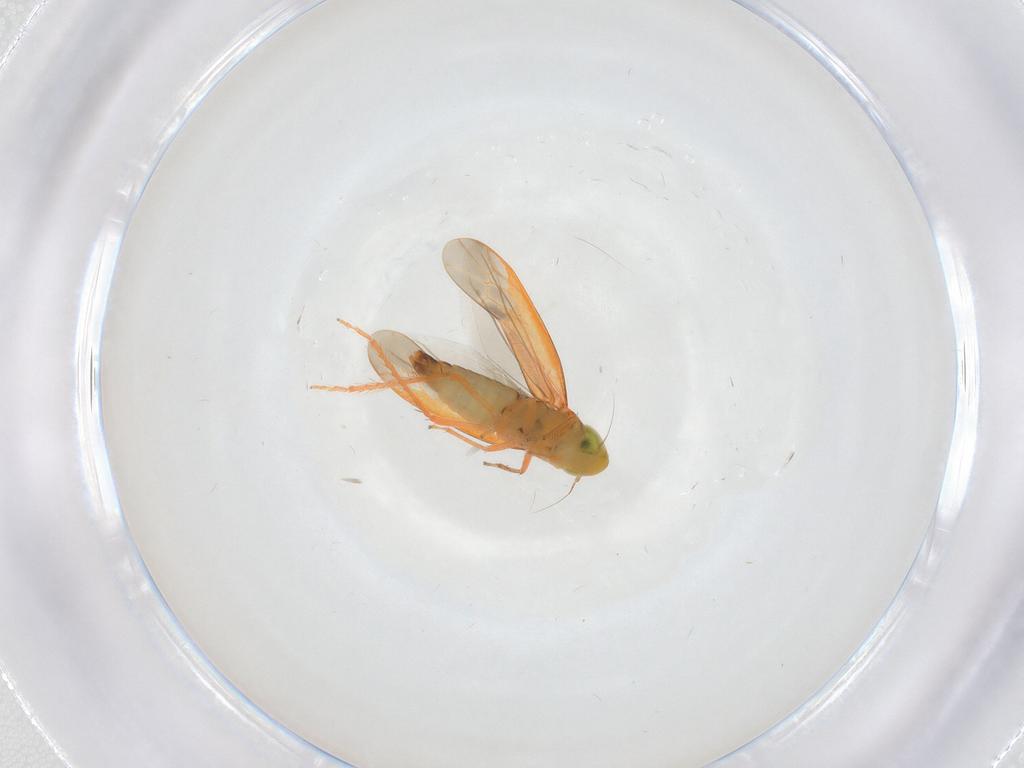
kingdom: Animalia
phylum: Arthropoda
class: Insecta
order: Hemiptera
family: Cicadellidae
